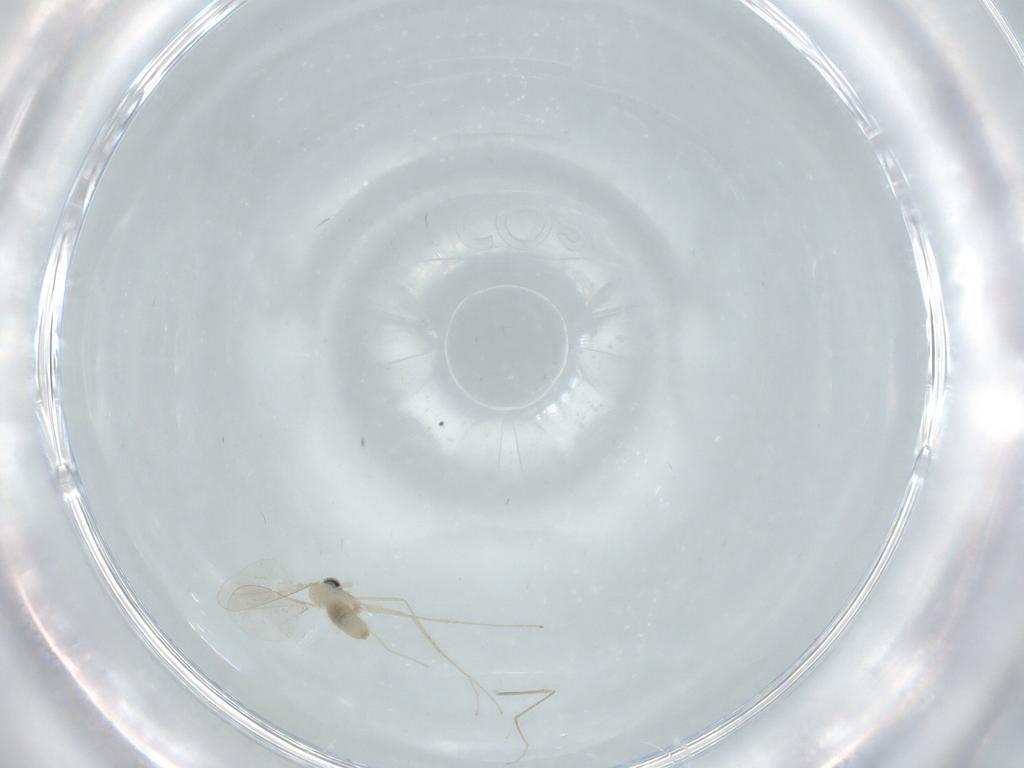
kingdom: Animalia
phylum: Arthropoda
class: Insecta
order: Diptera
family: Cecidomyiidae
